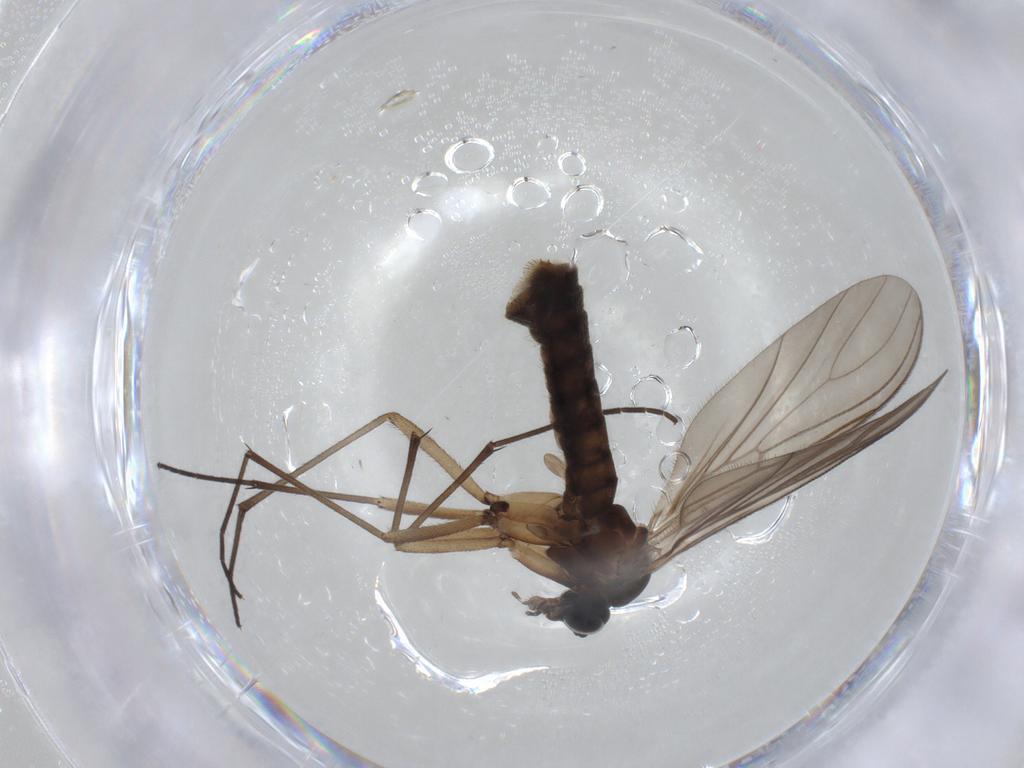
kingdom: Animalia
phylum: Arthropoda
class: Insecta
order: Diptera
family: Chironomidae
